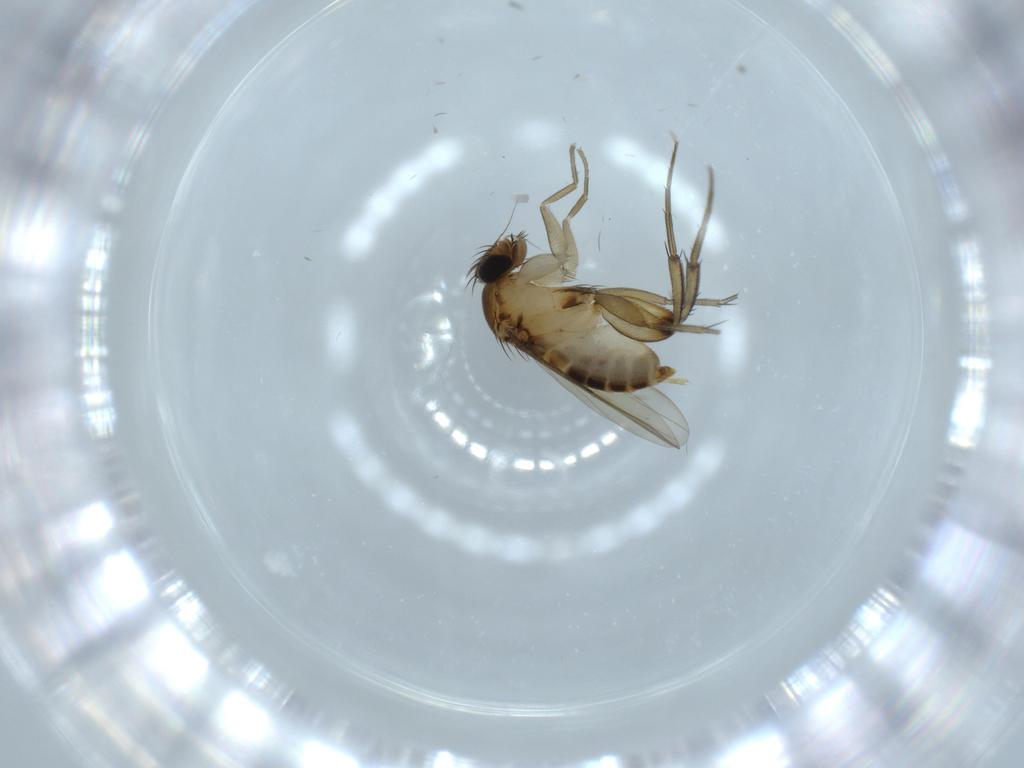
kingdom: Animalia
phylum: Arthropoda
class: Insecta
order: Diptera
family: Phoridae
